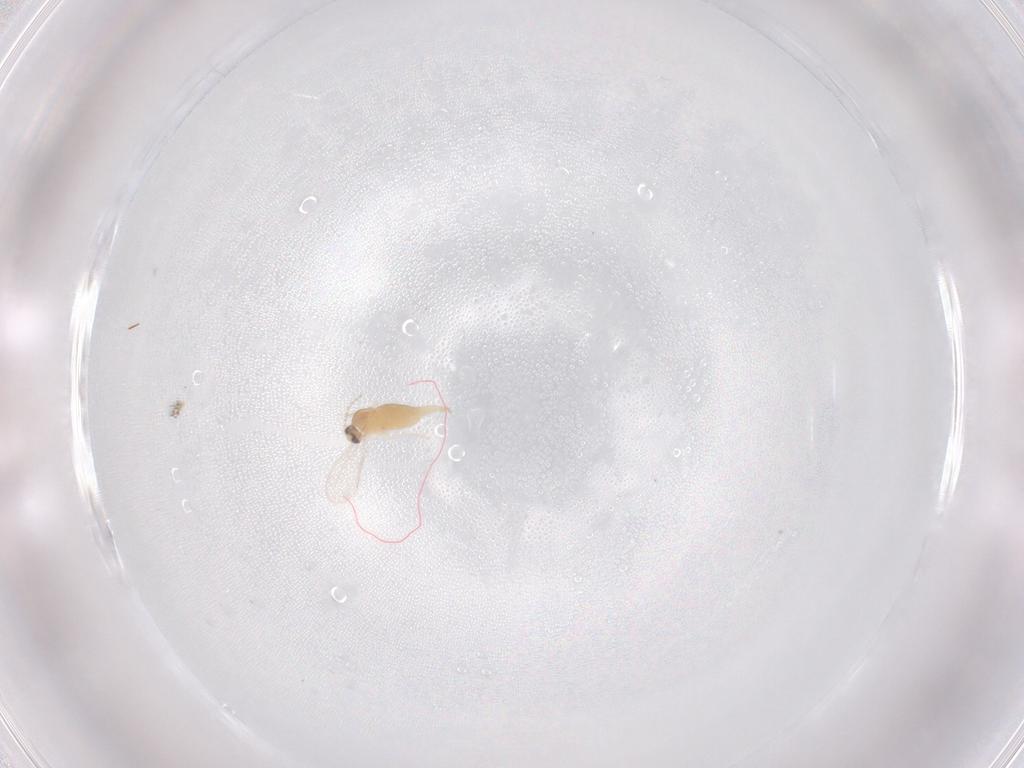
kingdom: Animalia
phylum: Arthropoda
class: Insecta
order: Diptera
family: Cecidomyiidae
